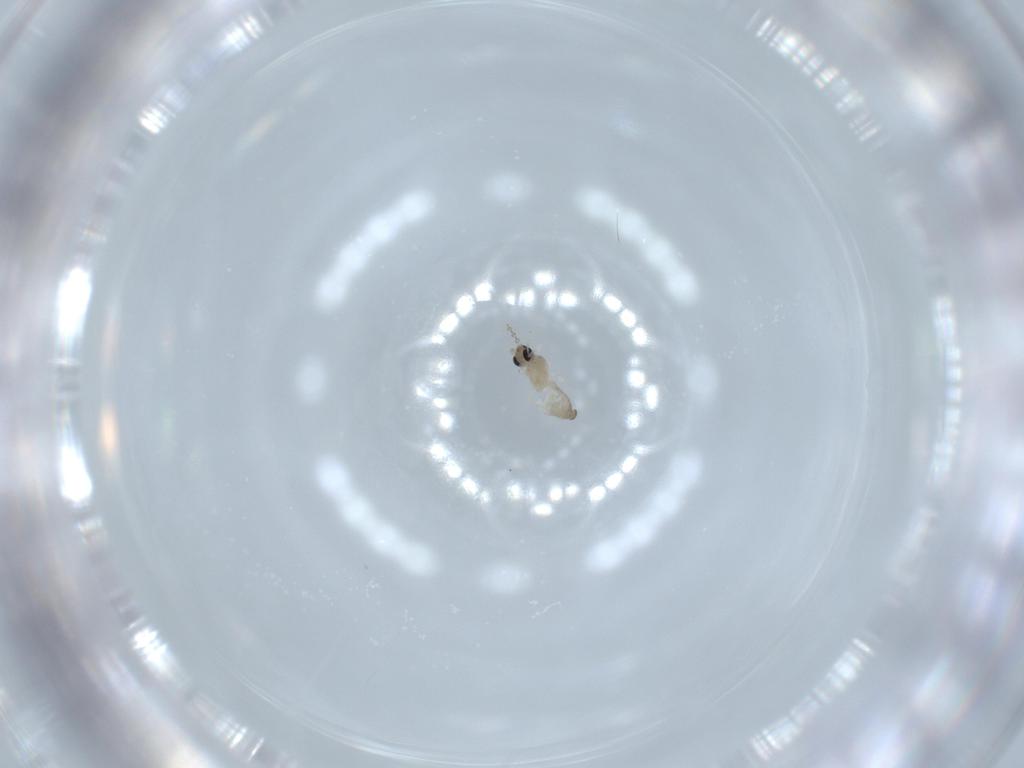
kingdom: Animalia
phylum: Arthropoda
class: Insecta
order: Diptera
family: Cecidomyiidae
